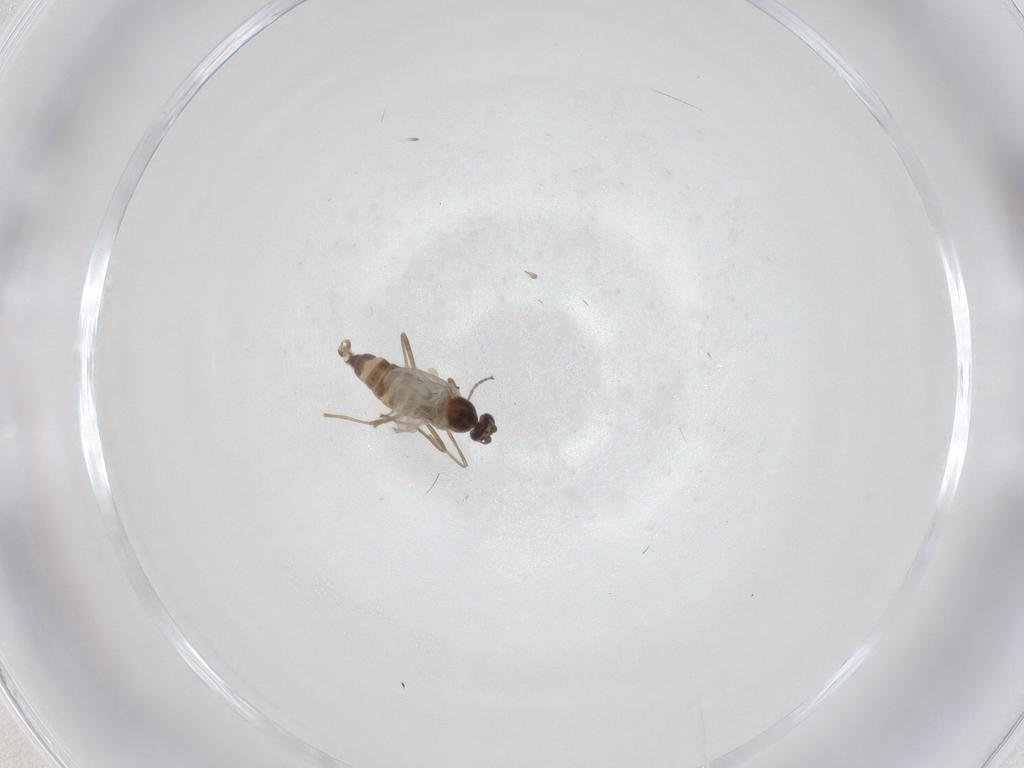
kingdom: Animalia
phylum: Arthropoda
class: Insecta
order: Diptera
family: Cecidomyiidae
